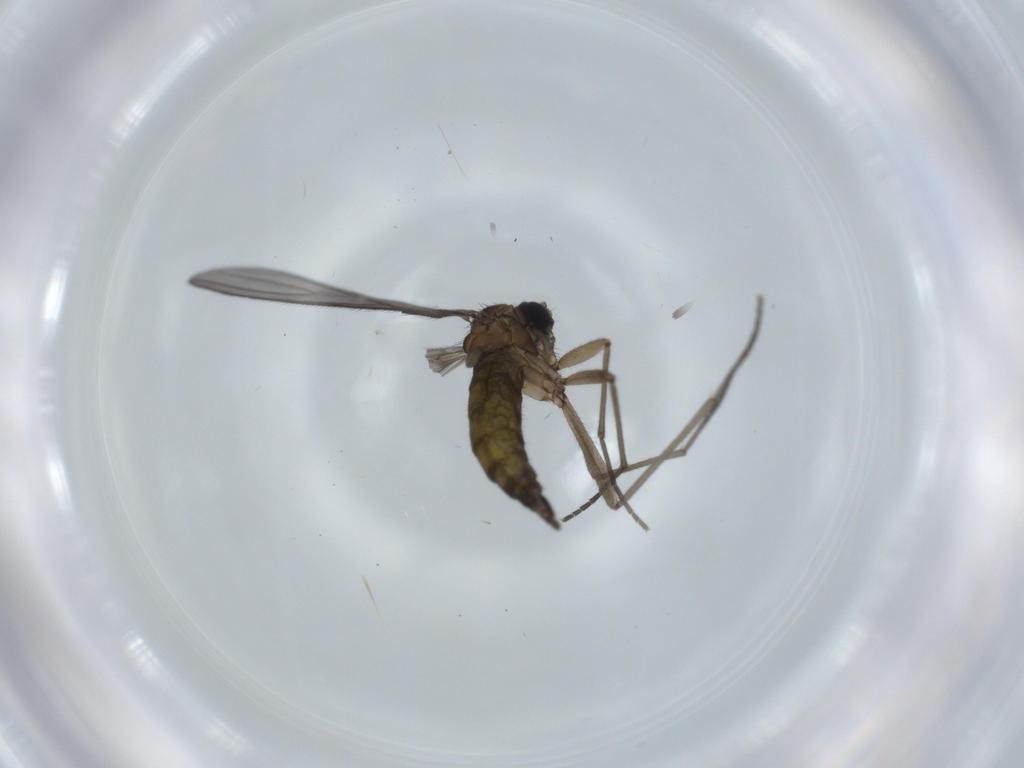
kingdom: Animalia
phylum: Arthropoda
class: Insecta
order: Diptera
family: Sciaridae
